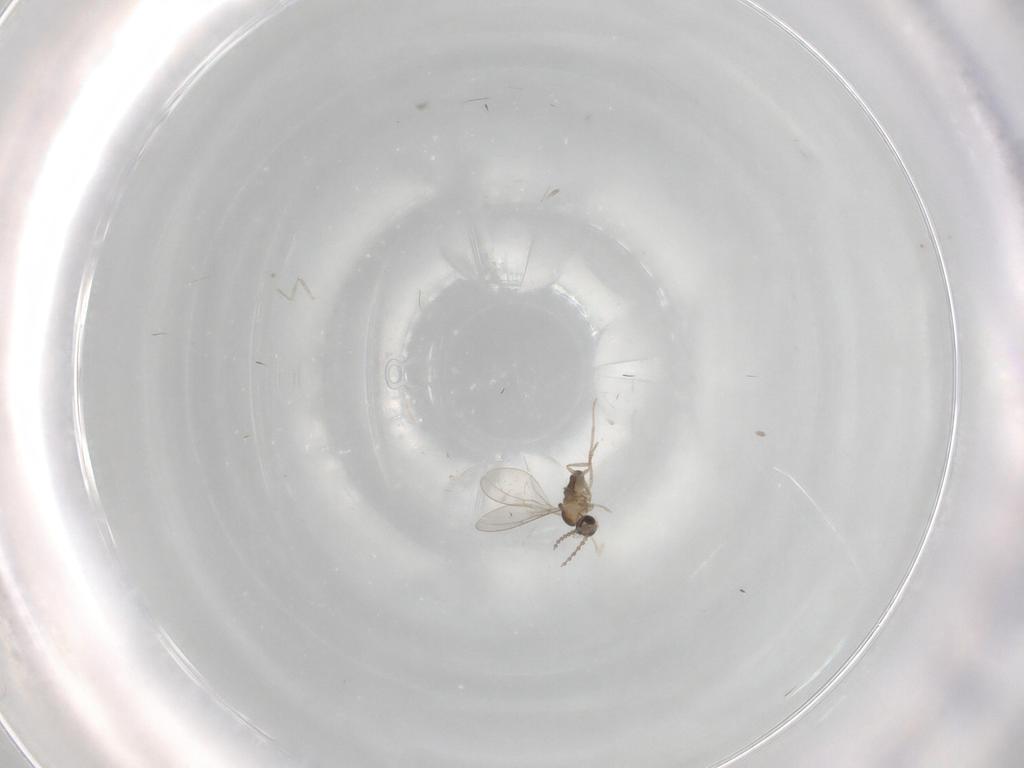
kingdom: Animalia
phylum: Arthropoda
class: Insecta
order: Diptera
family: Cecidomyiidae
